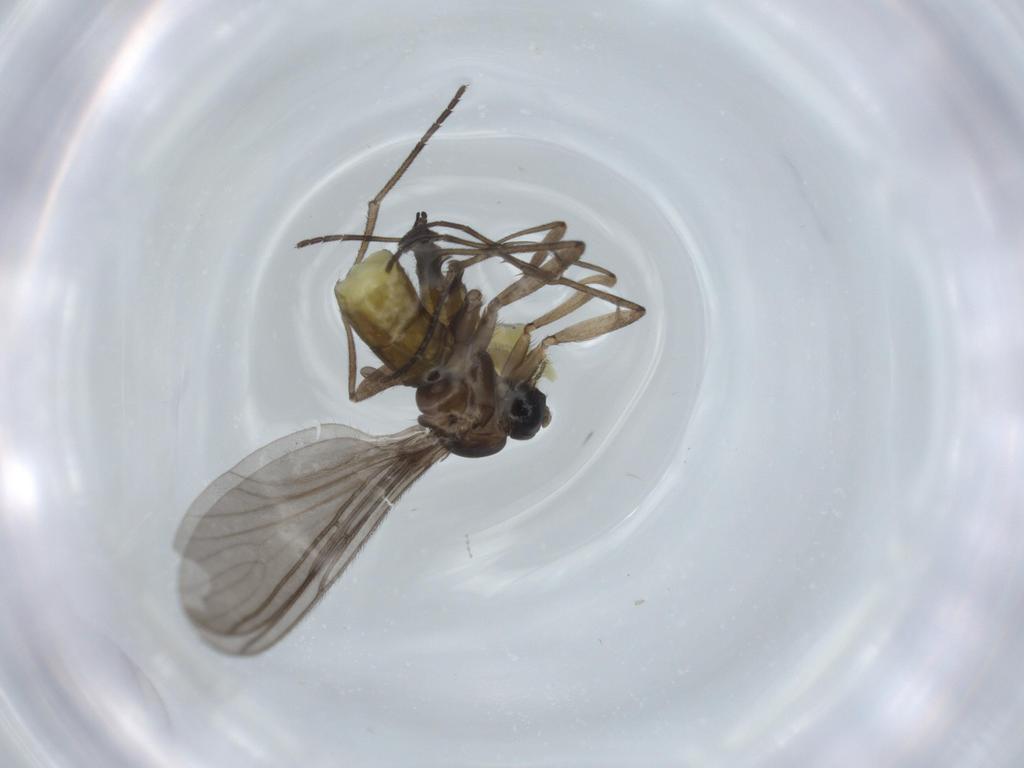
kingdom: Animalia
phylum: Arthropoda
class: Insecta
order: Diptera
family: Sciaridae
